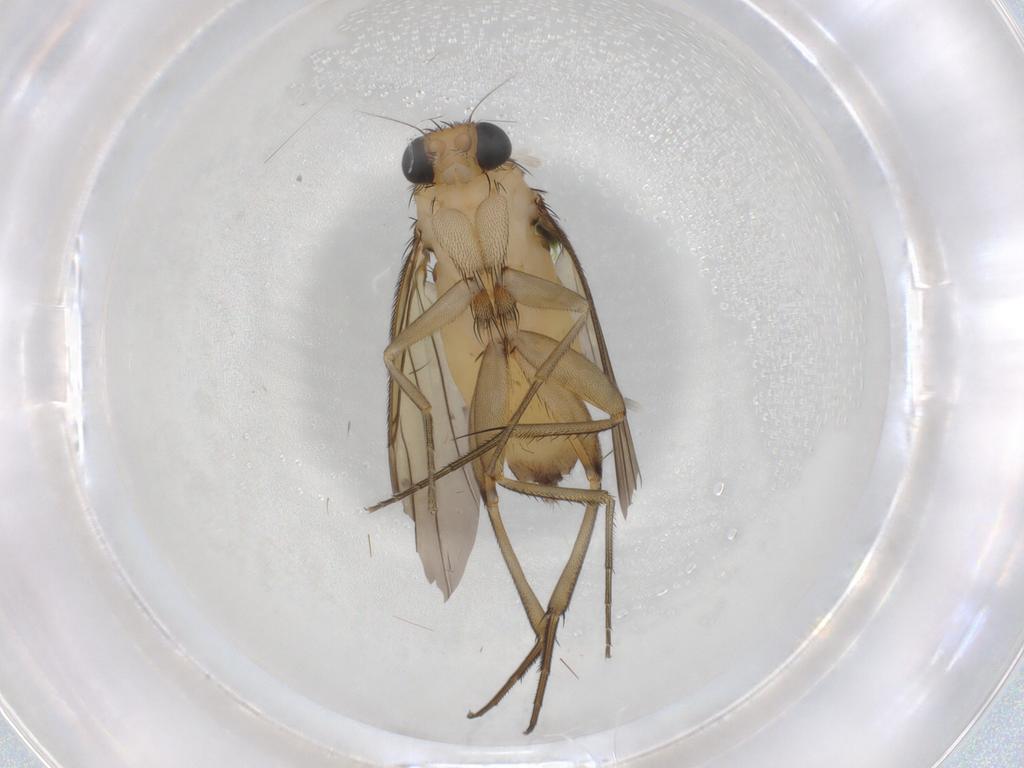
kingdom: Animalia
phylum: Arthropoda
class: Insecta
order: Diptera
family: Phoridae
